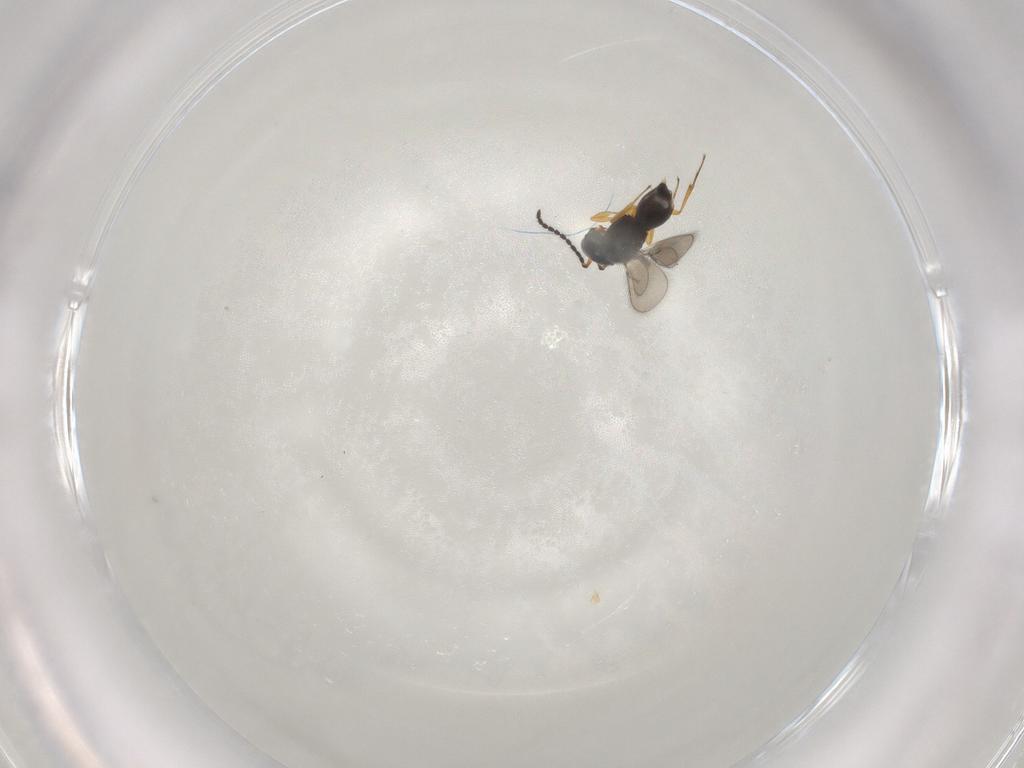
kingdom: Animalia
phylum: Arthropoda
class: Insecta
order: Hymenoptera
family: Scelionidae
